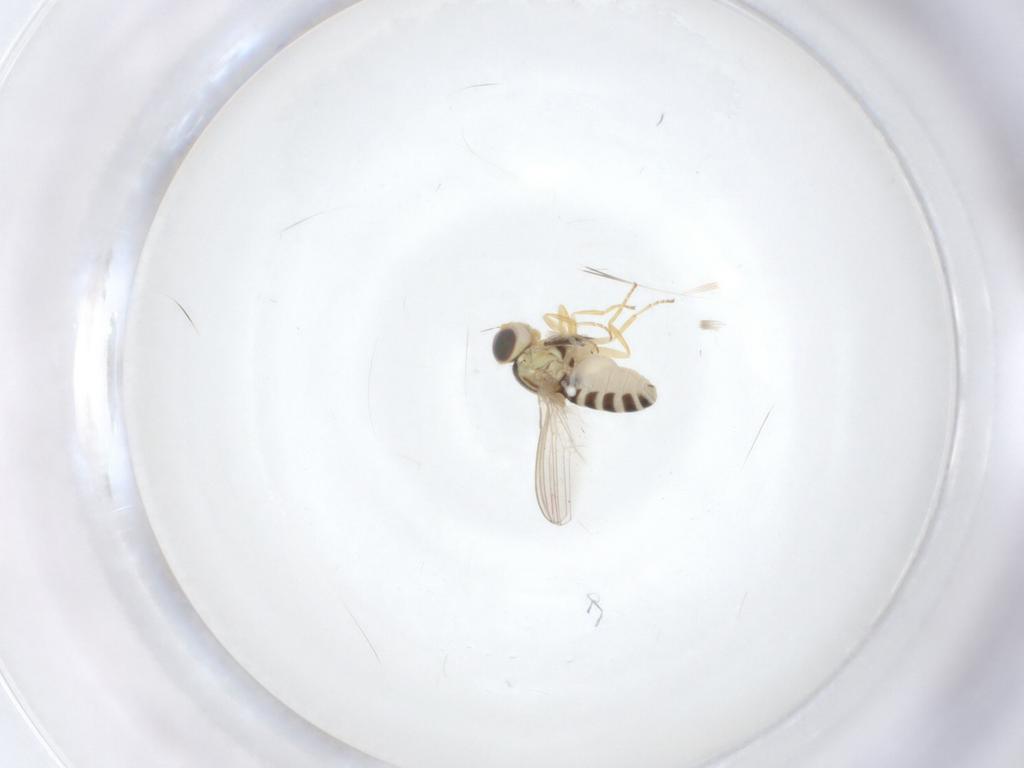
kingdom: Animalia
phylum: Arthropoda
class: Insecta
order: Diptera
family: Chyromyidae
